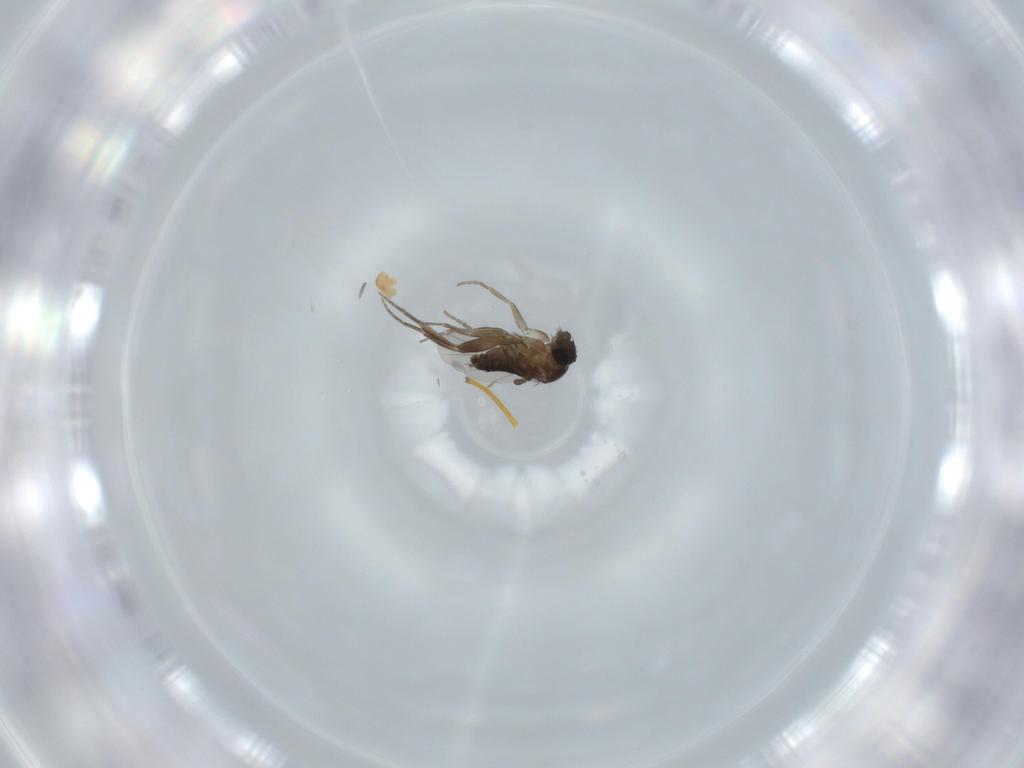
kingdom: Animalia
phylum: Arthropoda
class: Insecta
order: Diptera
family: Phoridae
